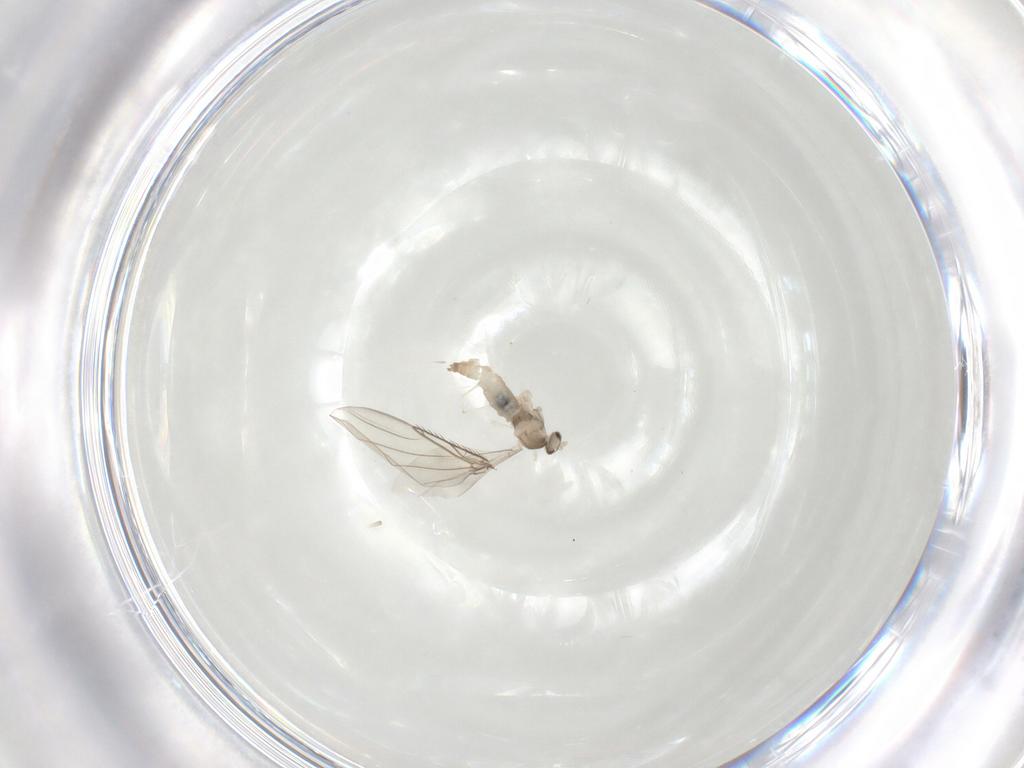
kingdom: Animalia
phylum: Arthropoda
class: Insecta
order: Diptera
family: Cecidomyiidae
